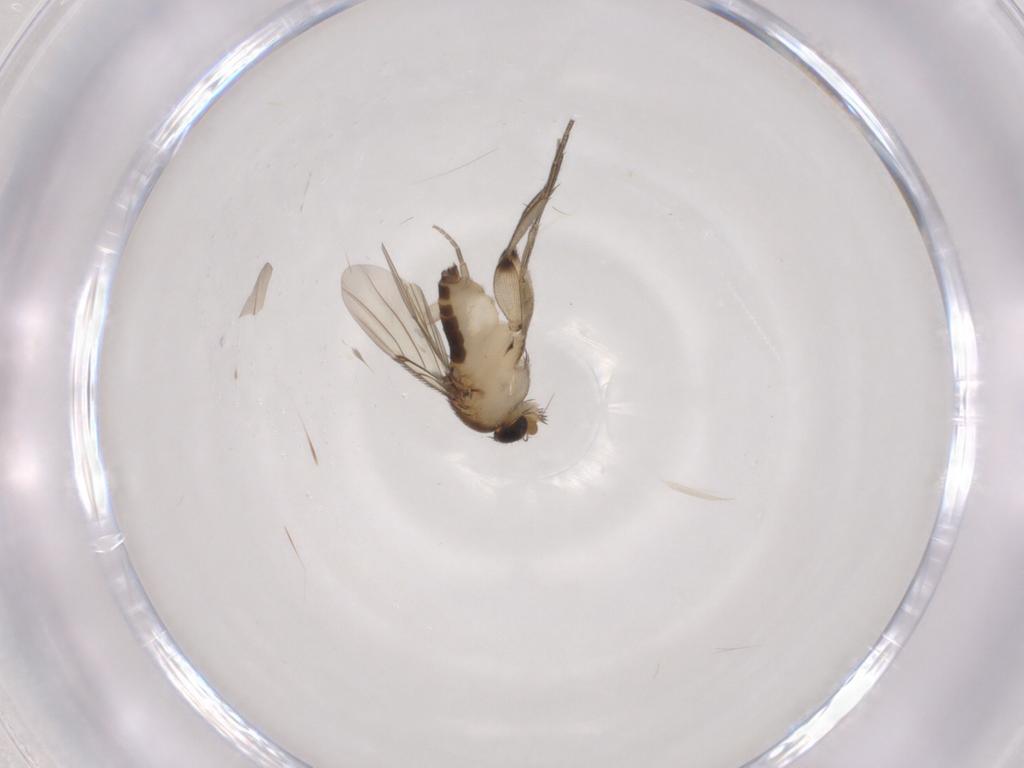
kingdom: Animalia
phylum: Arthropoda
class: Insecta
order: Diptera
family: Phoridae
